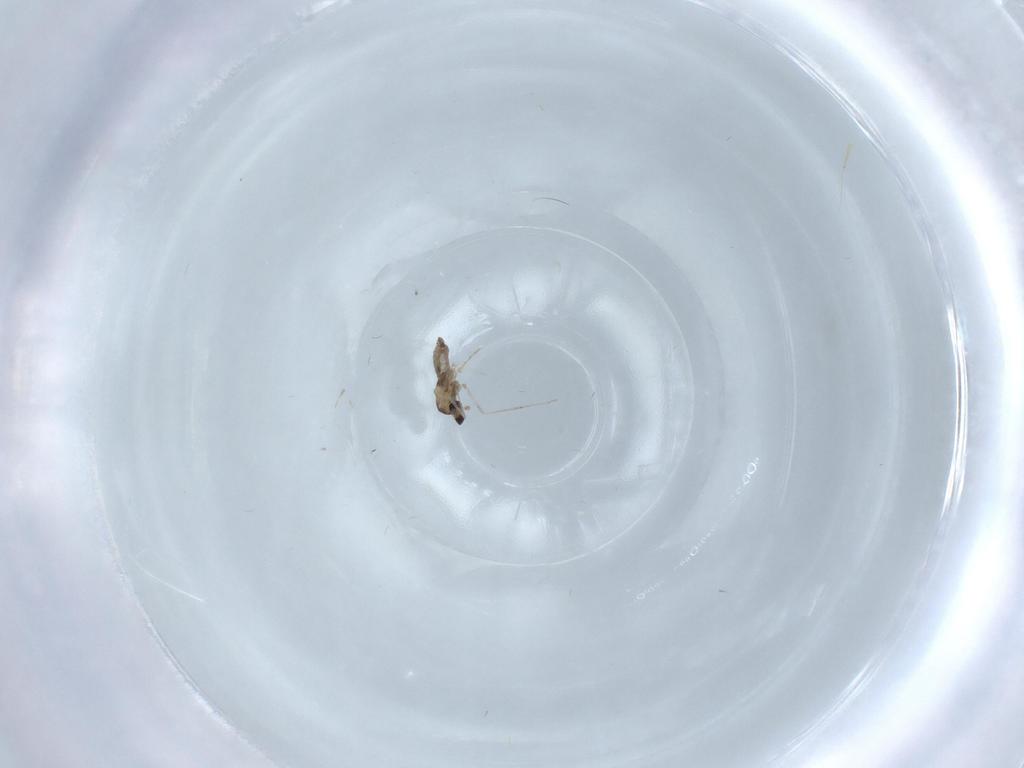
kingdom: Animalia
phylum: Arthropoda
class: Insecta
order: Diptera
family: Cecidomyiidae
